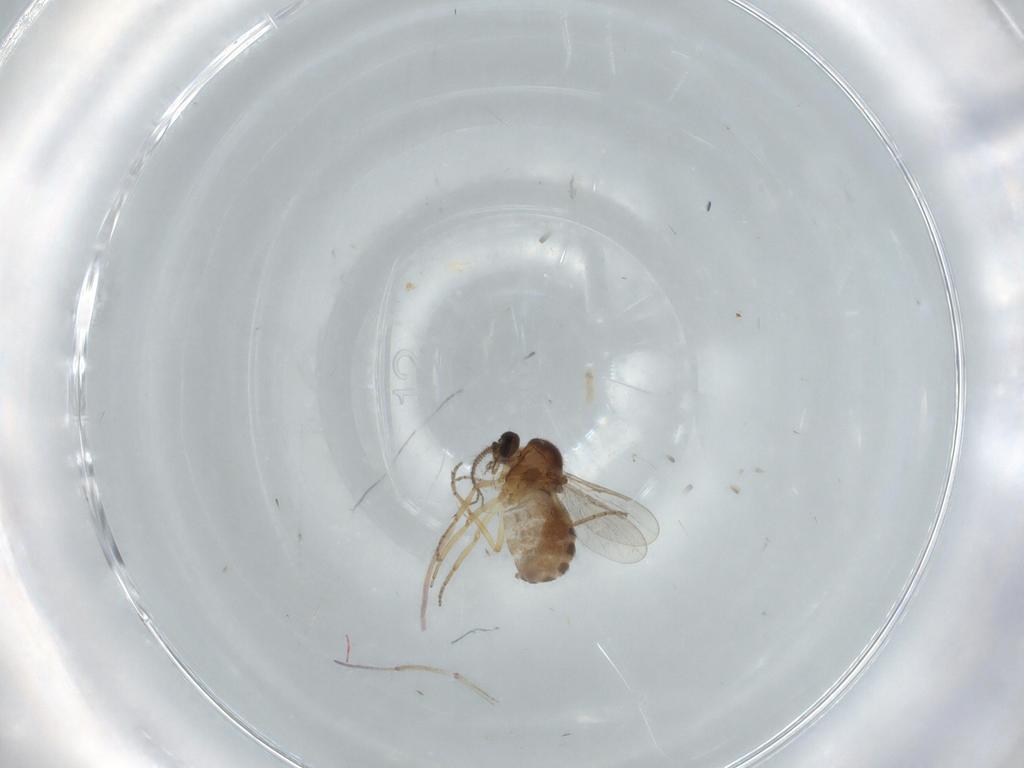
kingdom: Animalia
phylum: Arthropoda
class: Insecta
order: Diptera
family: Ceratopogonidae
